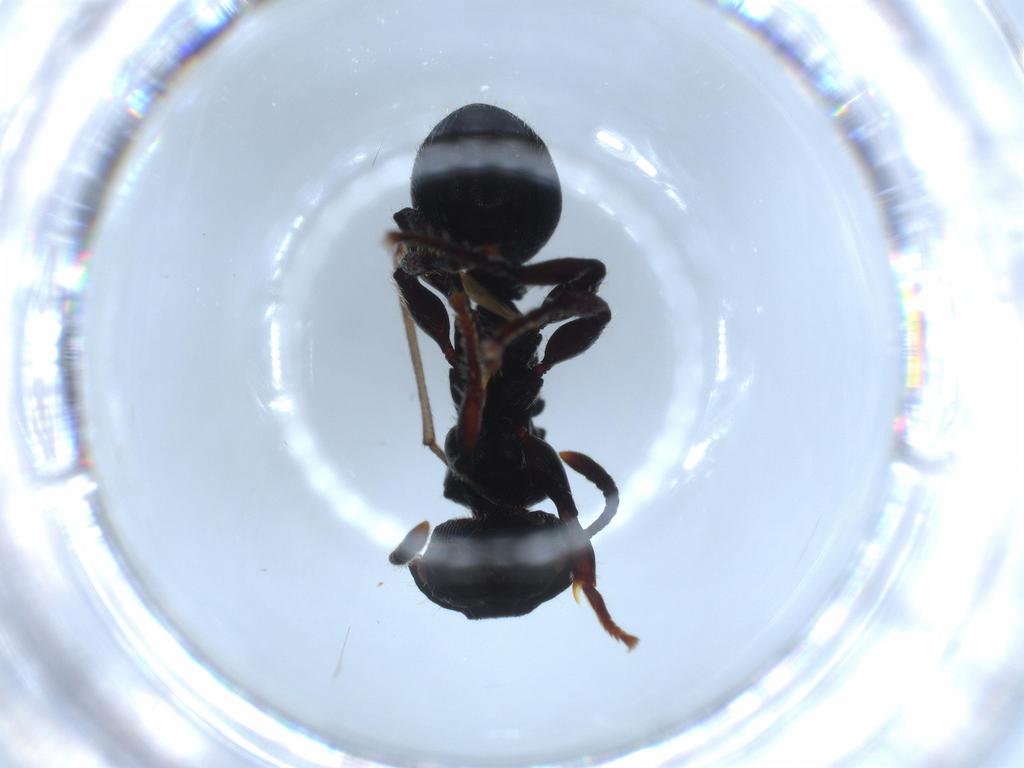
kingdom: Animalia
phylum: Arthropoda
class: Insecta
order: Hymenoptera
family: Formicidae
